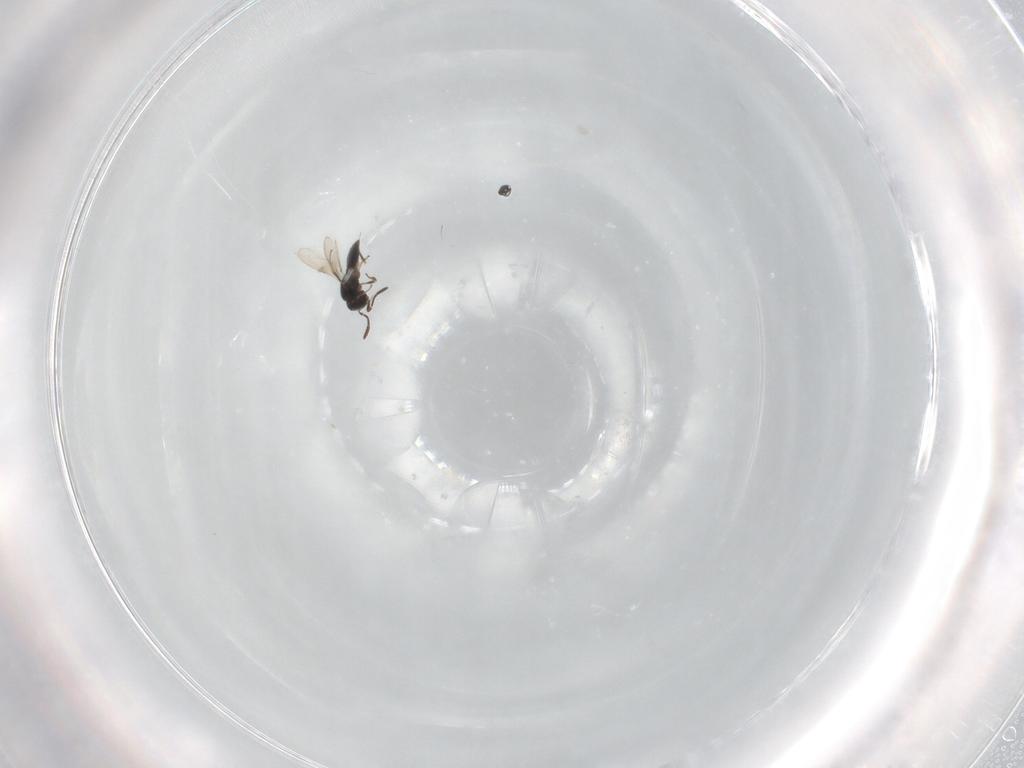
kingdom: Animalia
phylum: Arthropoda
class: Insecta
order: Hymenoptera
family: Scelionidae
